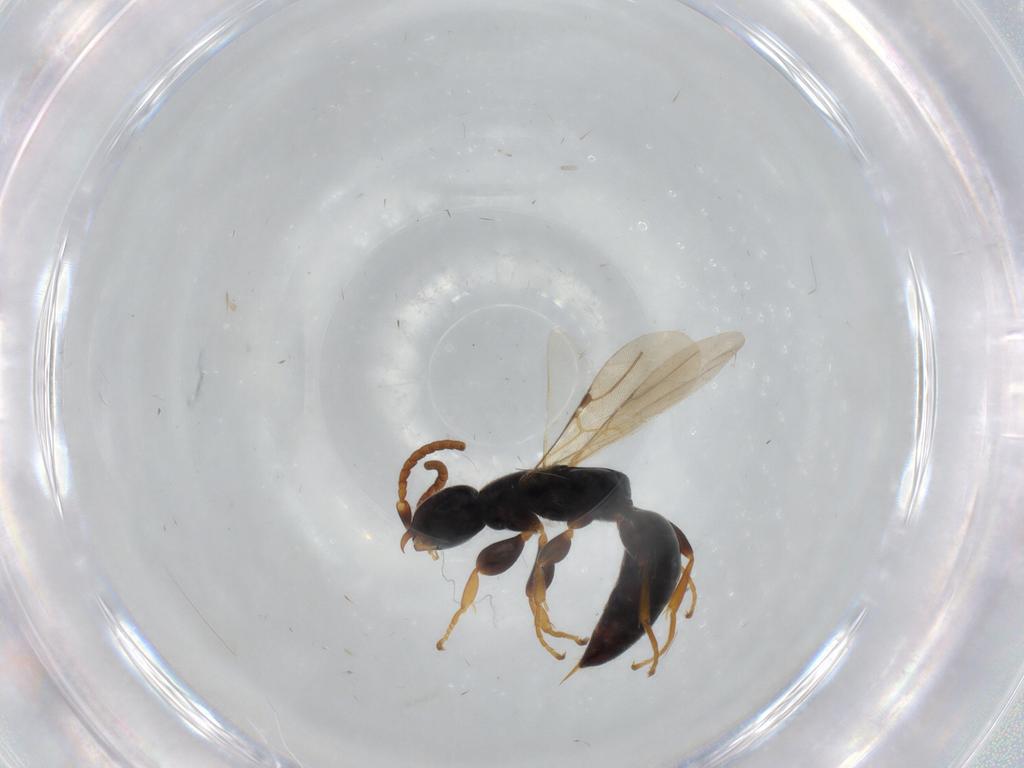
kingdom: Animalia
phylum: Arthropoda
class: Insecta
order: Hymenoptera
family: Bethylidae
